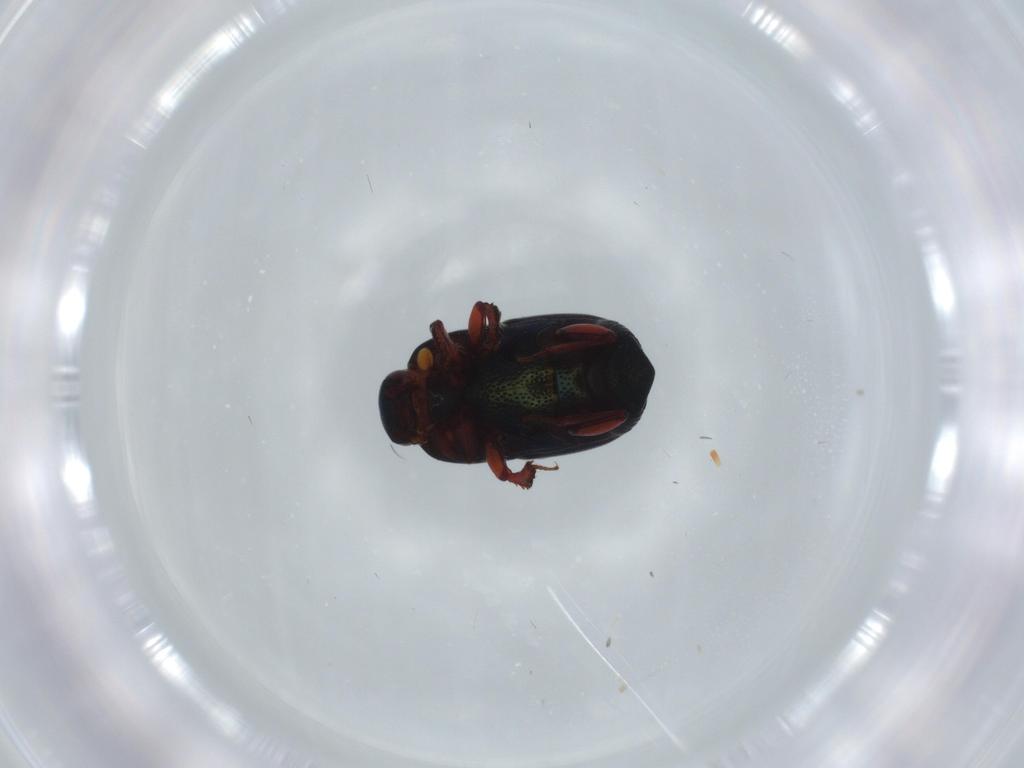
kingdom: Animalia
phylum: Arthropoda
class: Insecta
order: Coleoptera
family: Histeridae
